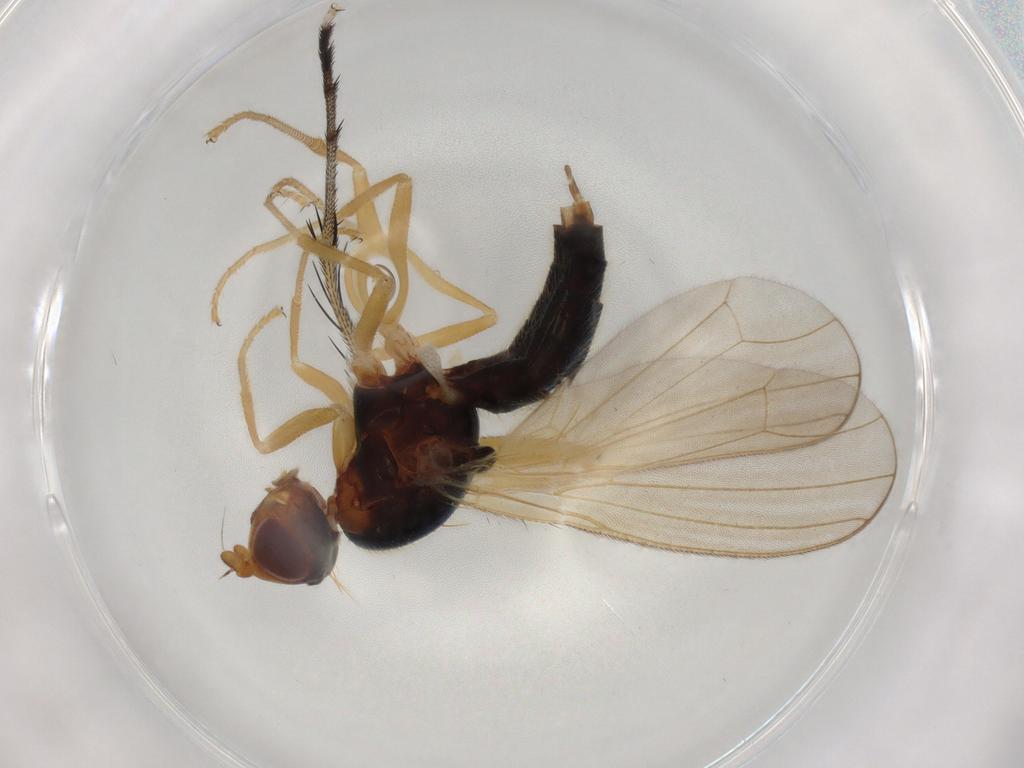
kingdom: Animalia
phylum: Arthropoda
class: Insecta
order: Diptera
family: Dolichopodidae
